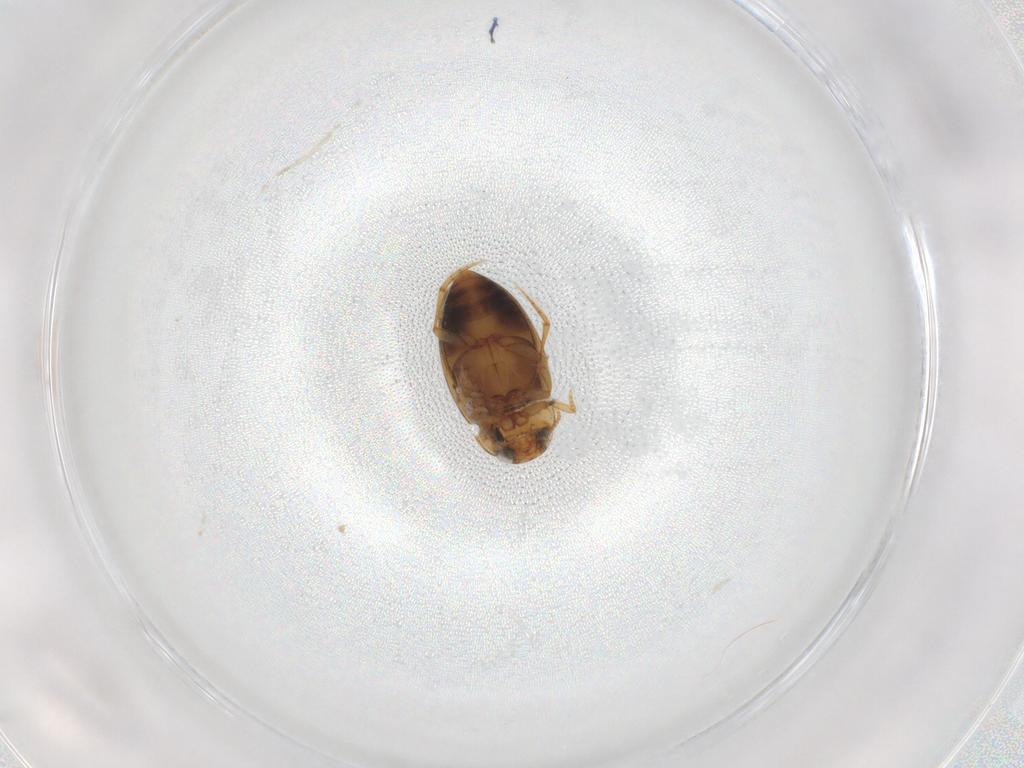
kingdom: Animalia
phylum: Arthropoda
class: Insecta
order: Coleoptera
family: Dytiscidae
